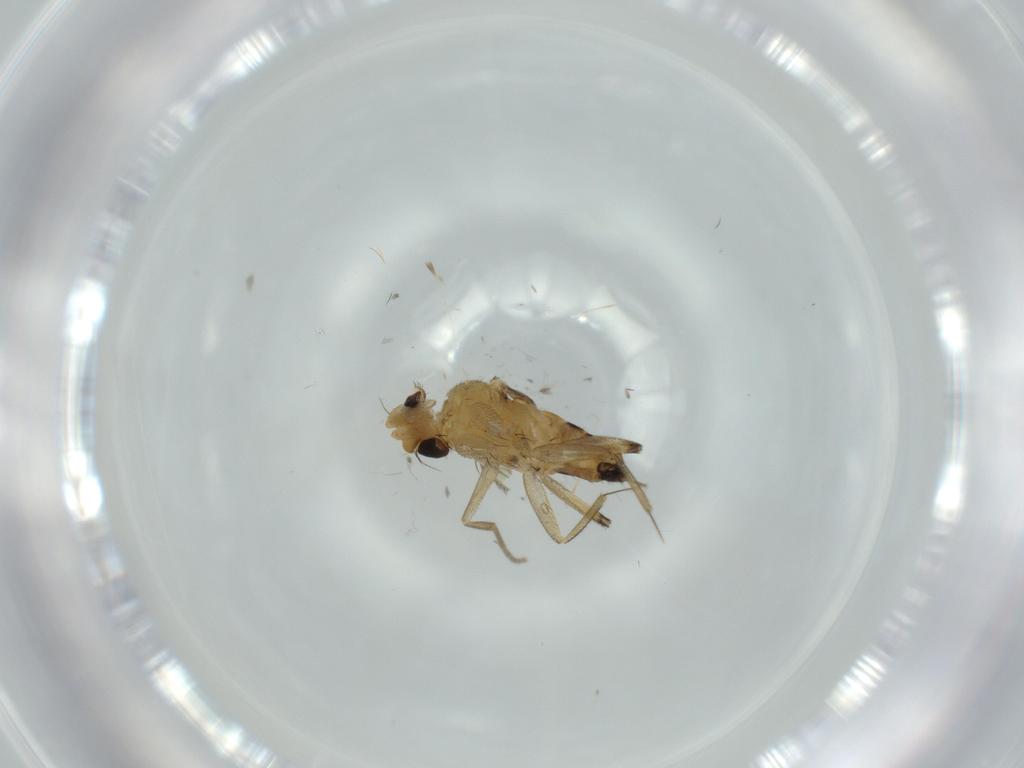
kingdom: Animalia
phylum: Arthropoda
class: Insecta
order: Diptera
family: Phoridae
